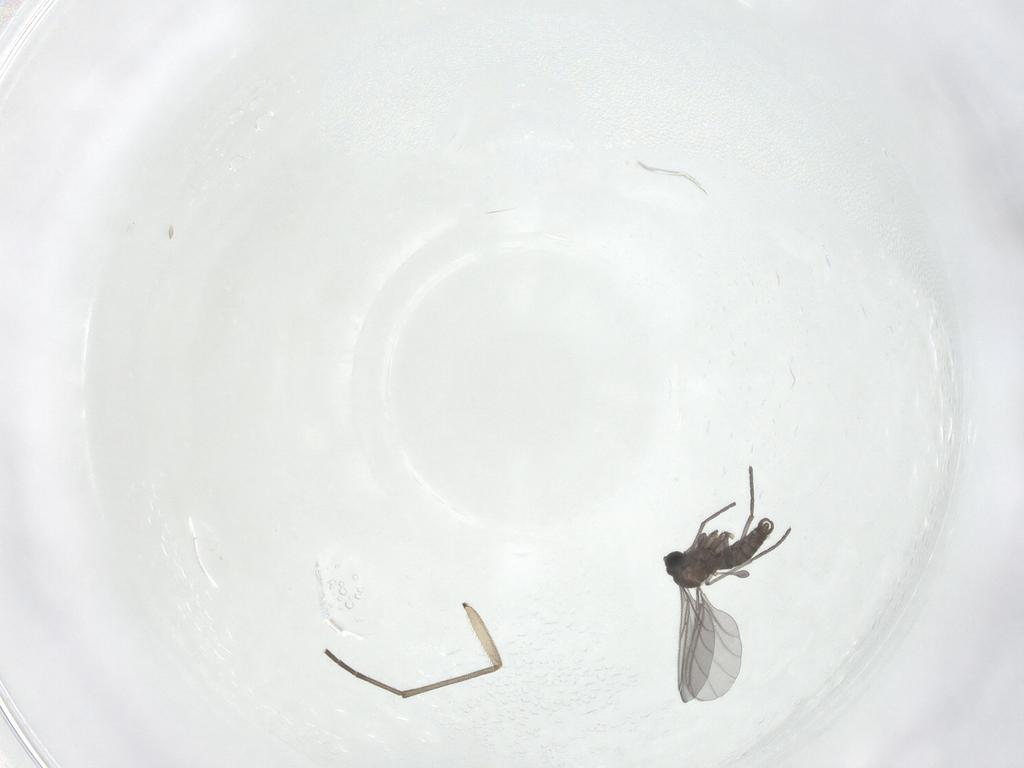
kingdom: Animalia
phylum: Arthropoda
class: Insecta
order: Diptera
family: Sciaridae
